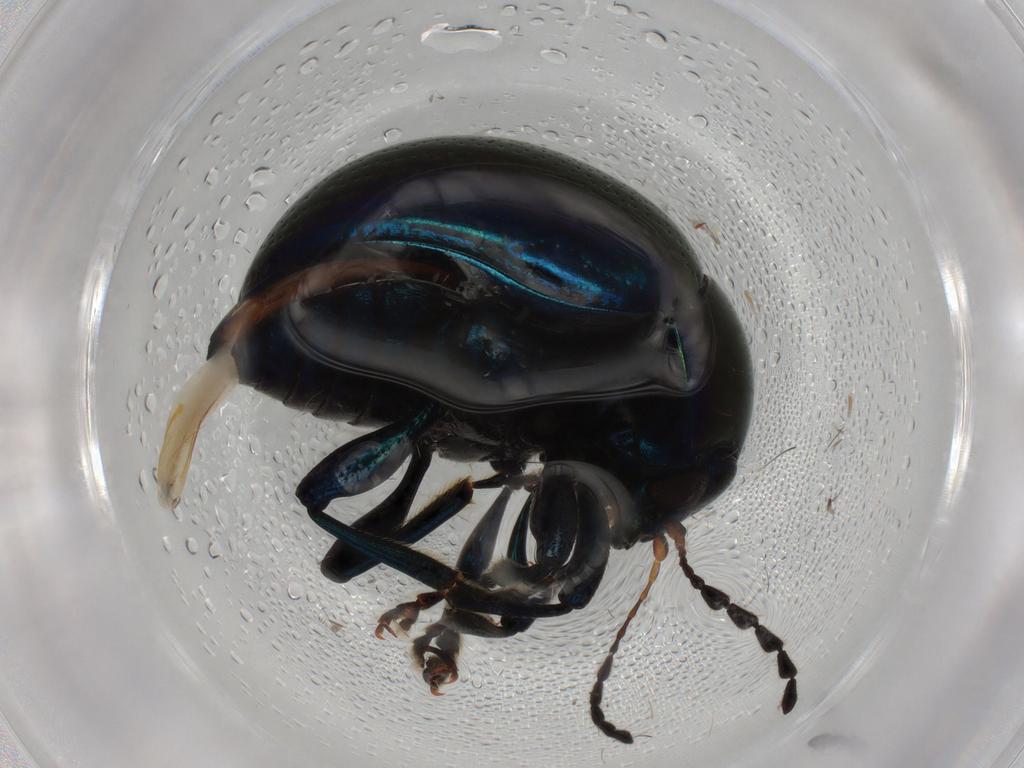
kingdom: Animalia
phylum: Arthropoda
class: Insecta
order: Coleoptera
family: Chrysomelidae
